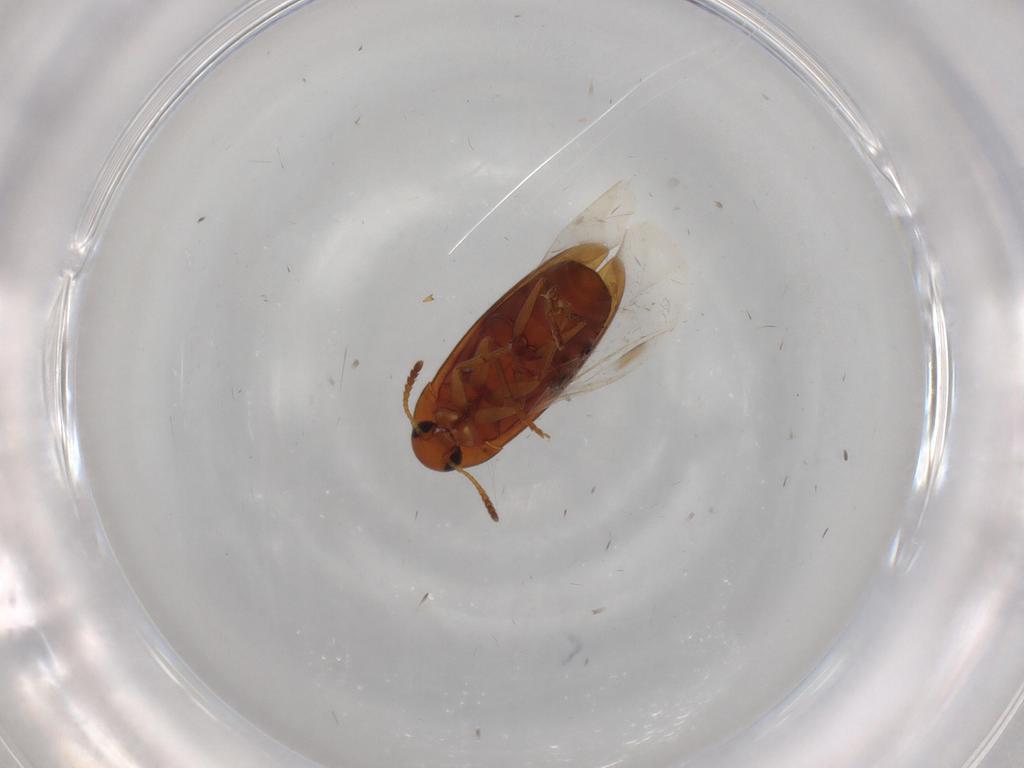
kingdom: Animalia
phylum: Arthropoda
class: Insecta
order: Coleoptera
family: Scraptiidae
